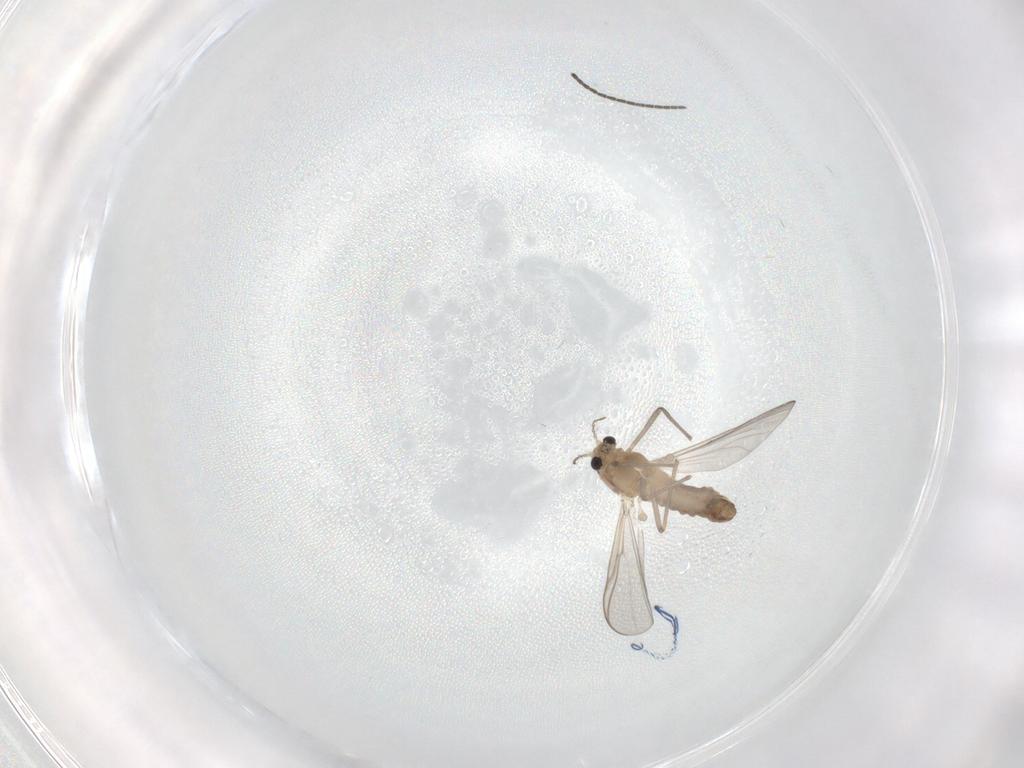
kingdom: Animalia
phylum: Arthropoda
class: Insecta
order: Diptera
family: Chironomidae
